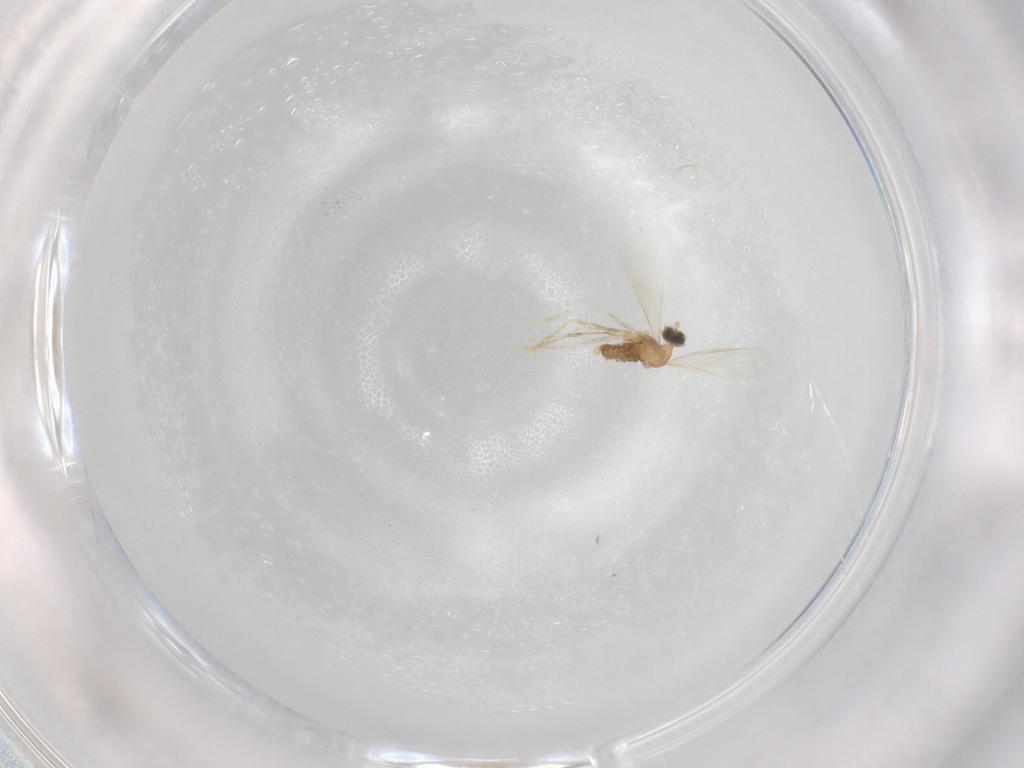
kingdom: Animalia
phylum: Arthropoda
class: Insecta
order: Diptera
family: Cecidomyiidae
